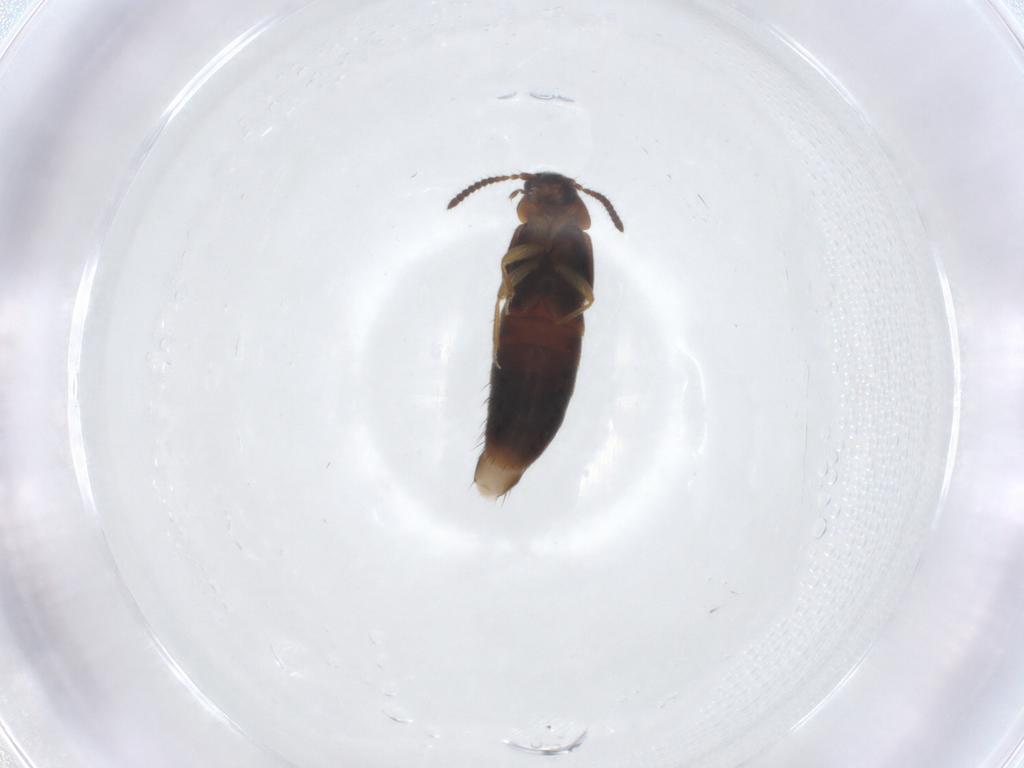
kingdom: Animalia
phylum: Arthropoda
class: Insecta
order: Coleoptera
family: Staphylinidae
